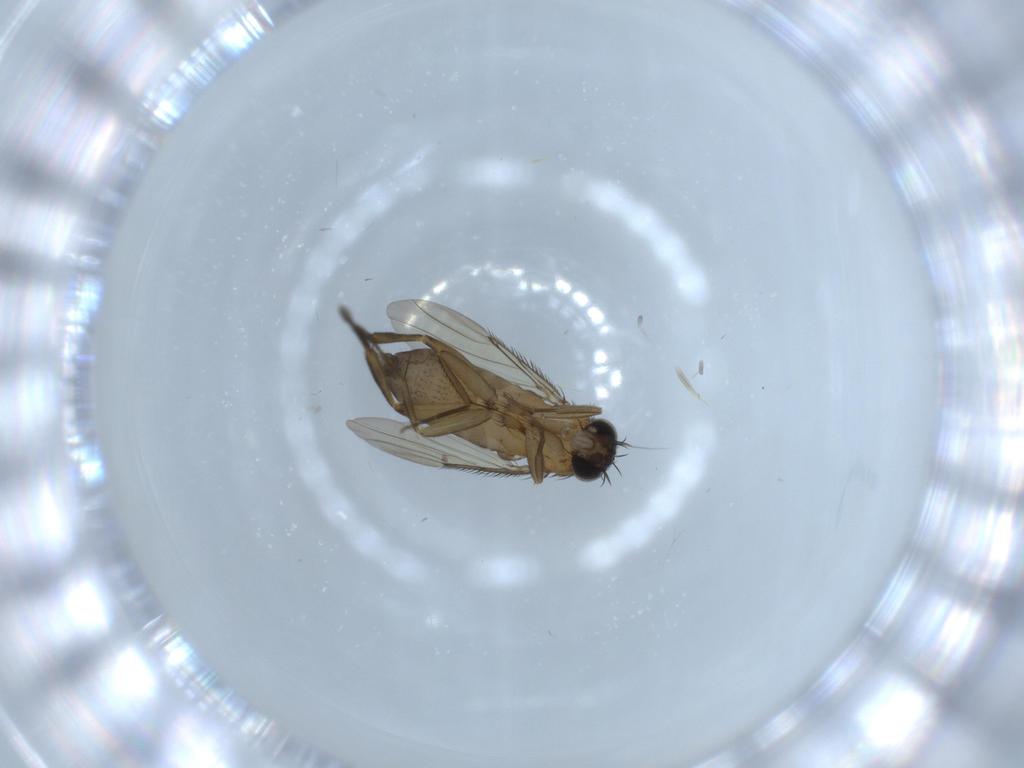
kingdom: Animalia
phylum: Arthropoda
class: Insecta
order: Diptera
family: Phoridae
